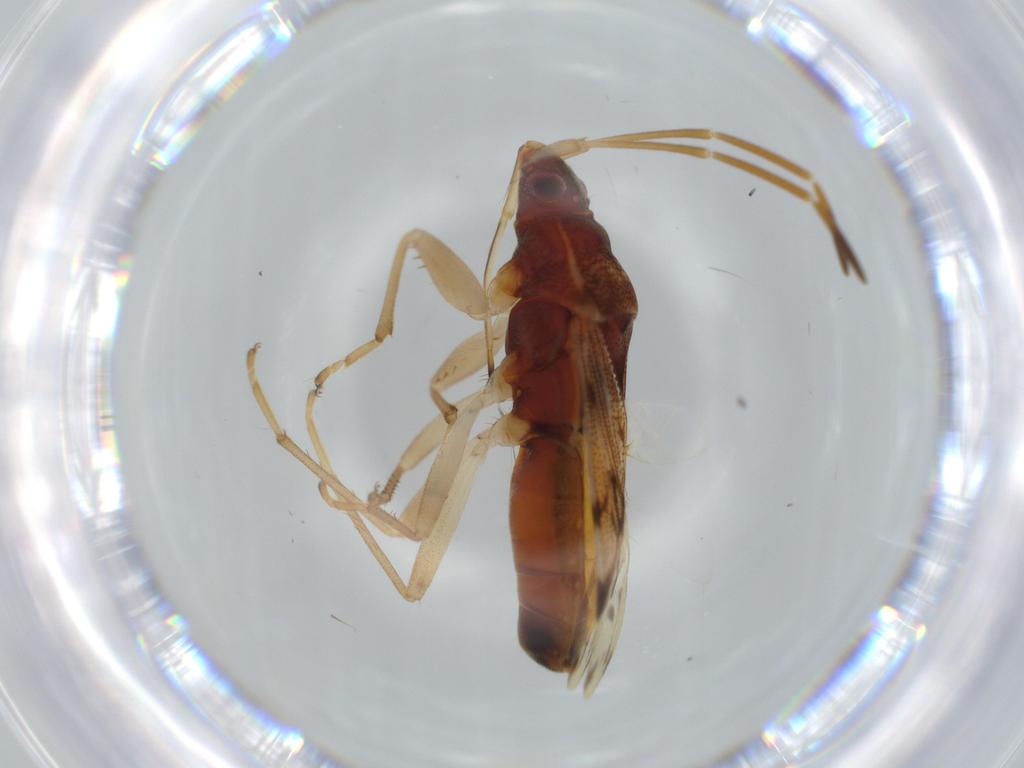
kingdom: Animalia
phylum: Arthropoda
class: Insecta
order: Hemiptera
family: Rhyparochromidae
